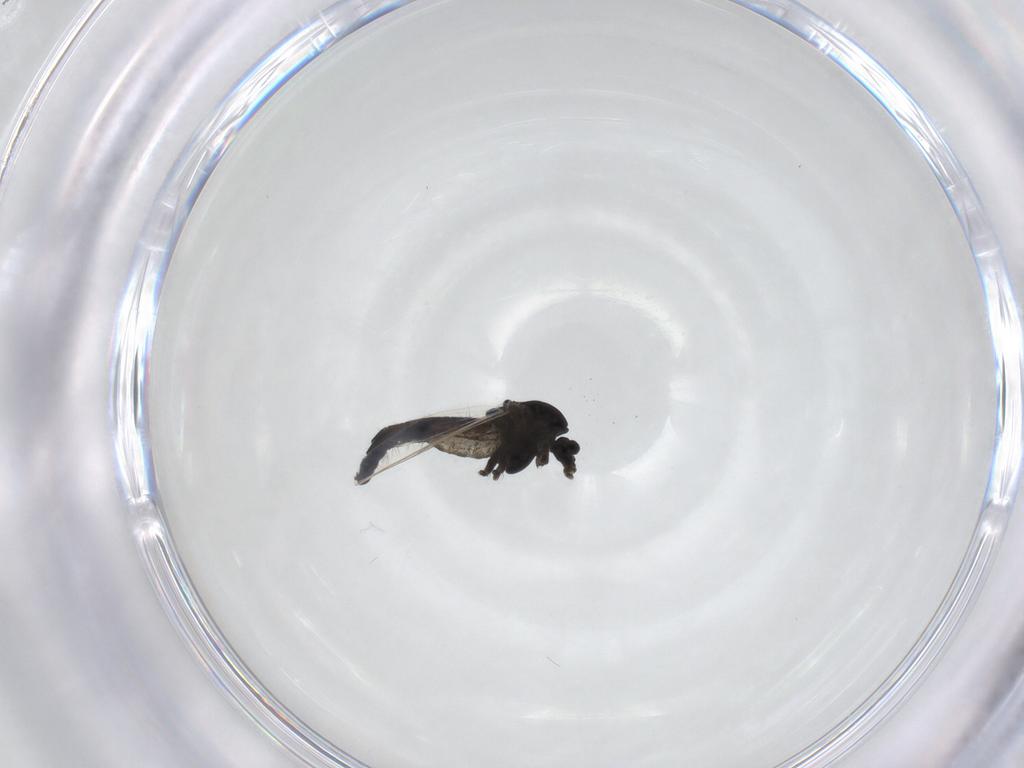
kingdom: Animalia
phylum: Arthropoda
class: Insecta
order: Diptera
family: Chironomidae
